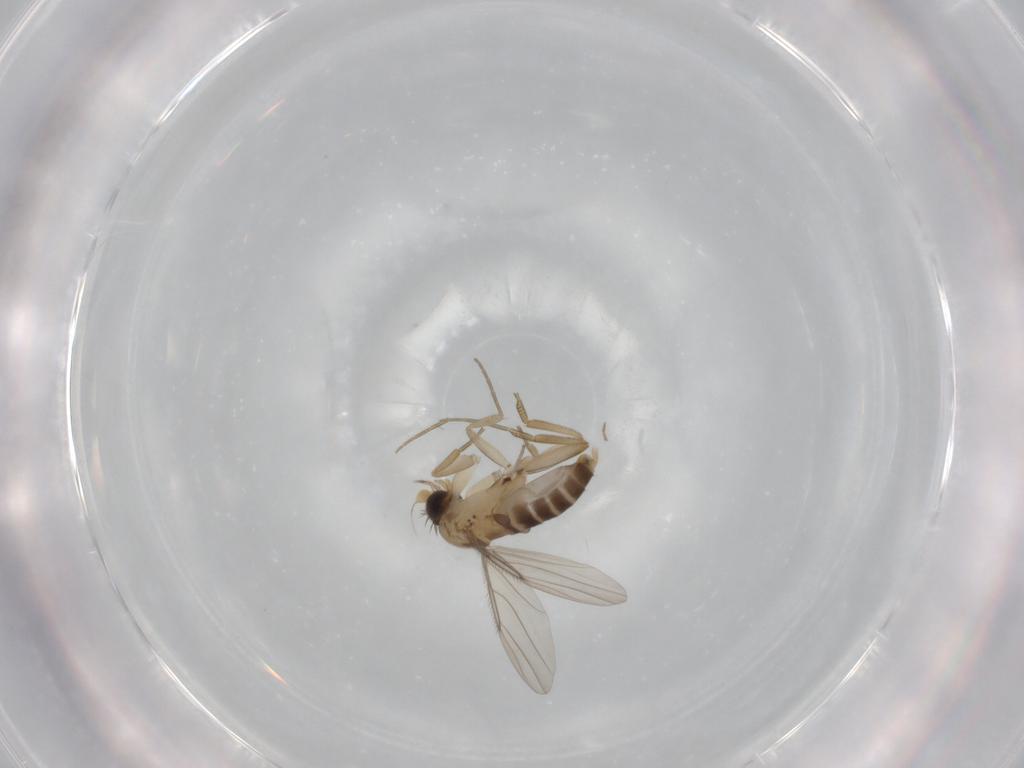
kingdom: Animalia
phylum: Arthropoda
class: Insecta
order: Diptera
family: Phoridae
